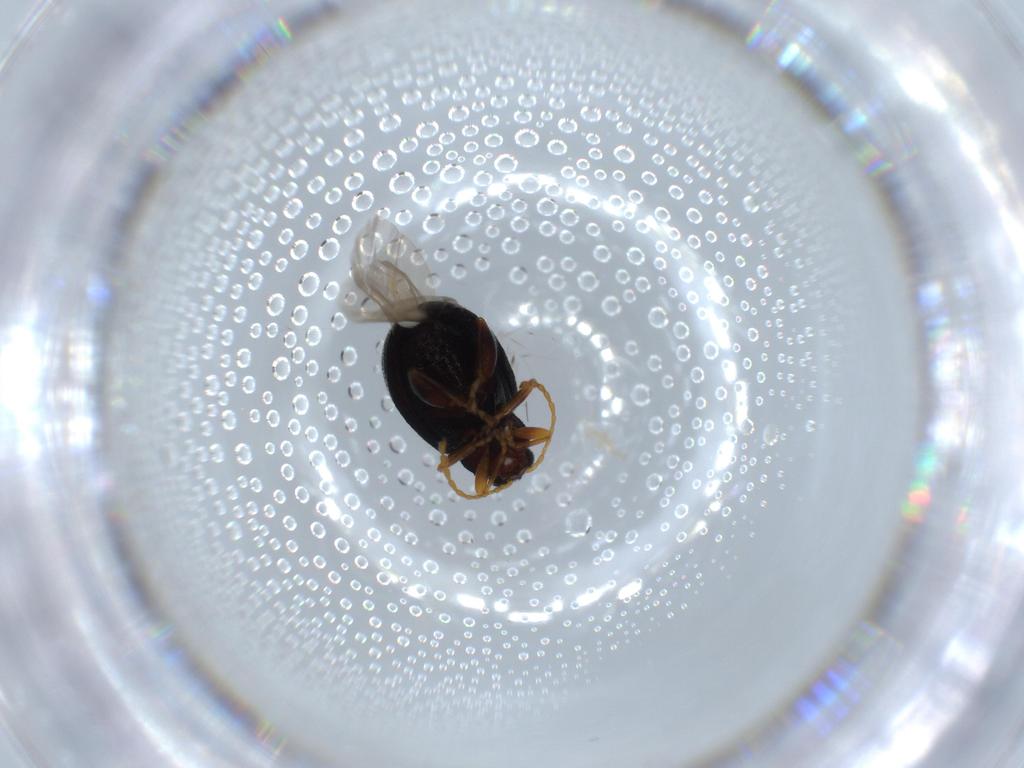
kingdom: Animalia
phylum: Arthropoda
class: Insecta
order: Coleoptera
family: Chrysomelidae
